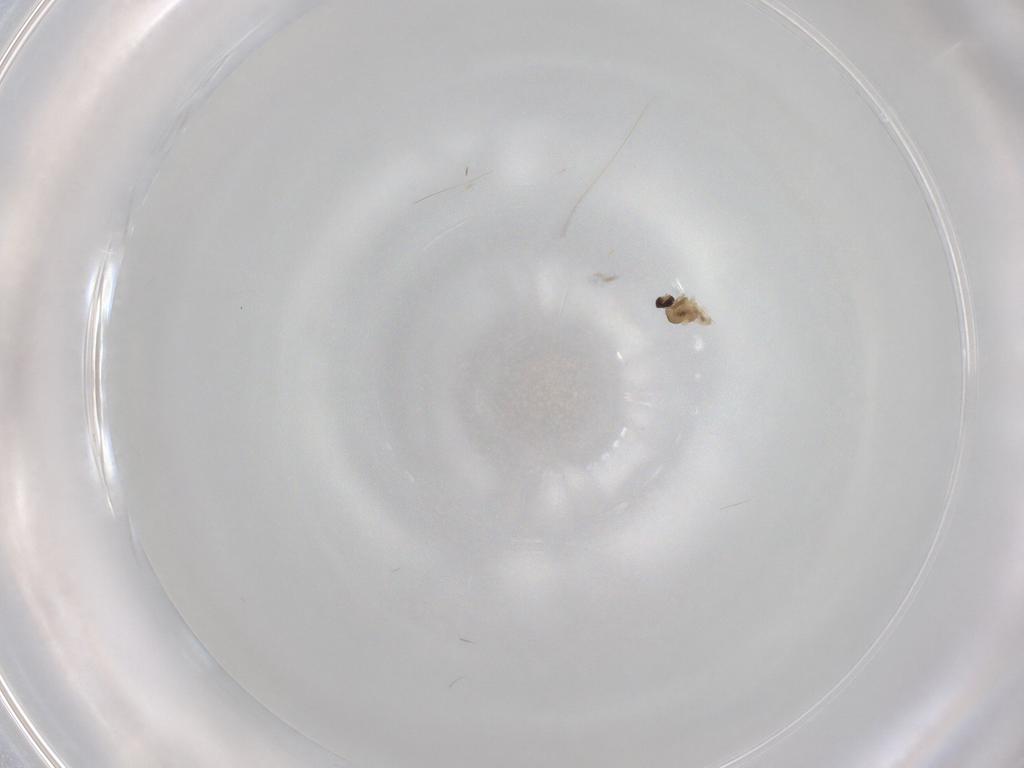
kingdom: Animalia
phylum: Arthropoda
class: Insecta
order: Diptera
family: Cecidomyiidae
